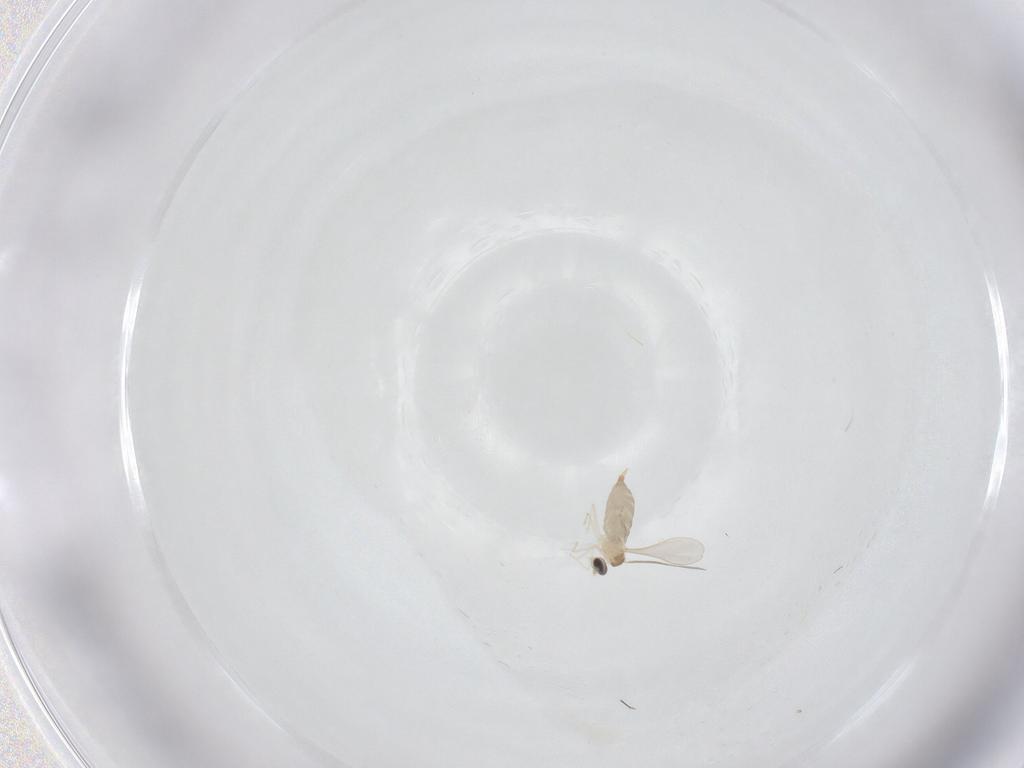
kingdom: Animalia
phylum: Arthropoda
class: Insecta
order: Diptera
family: Cecidomyiidae
